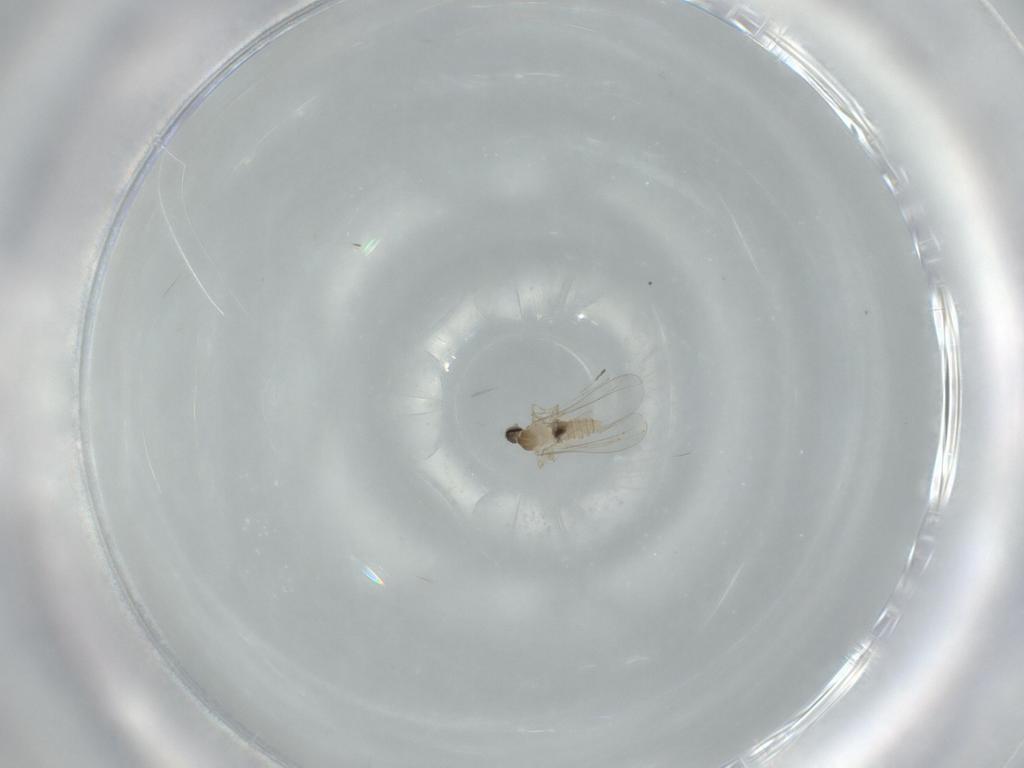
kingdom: Animalia
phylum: Arthropoda
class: Insecta
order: Diptera
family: Cecidomyiidae
